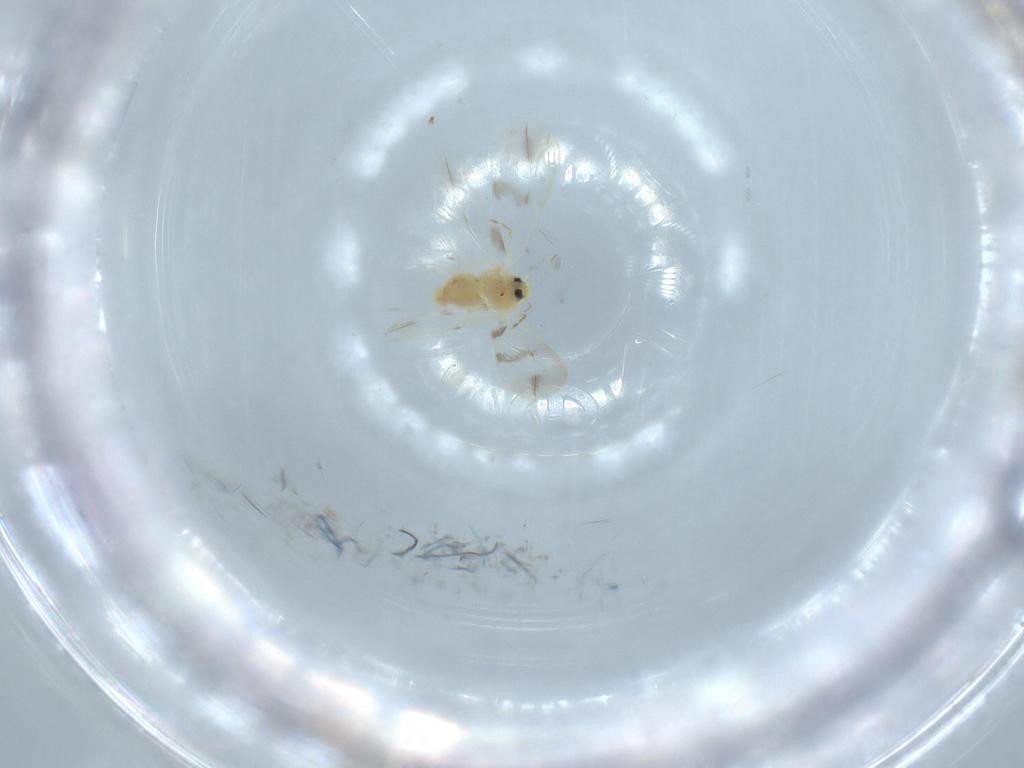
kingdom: Animalia
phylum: Arthropoda
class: Insecta
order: Hemiptera
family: Aleyrodidae
